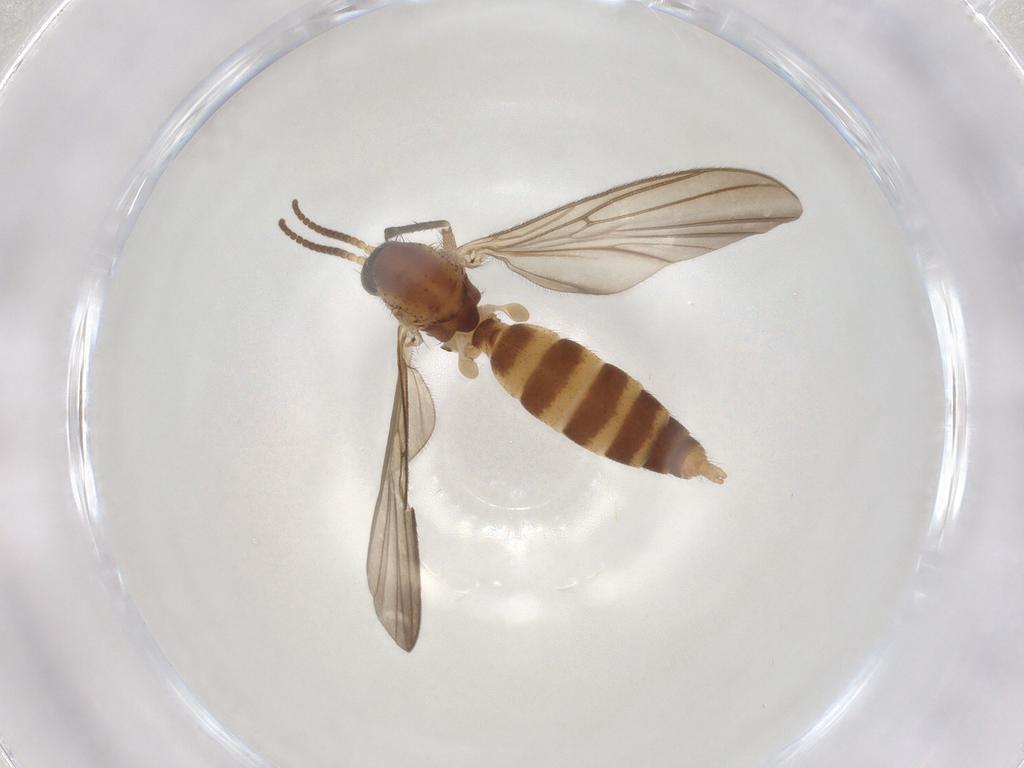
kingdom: Animalia
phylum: Arthropoda
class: Insecta
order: Diptera
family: Mycetophilidae
